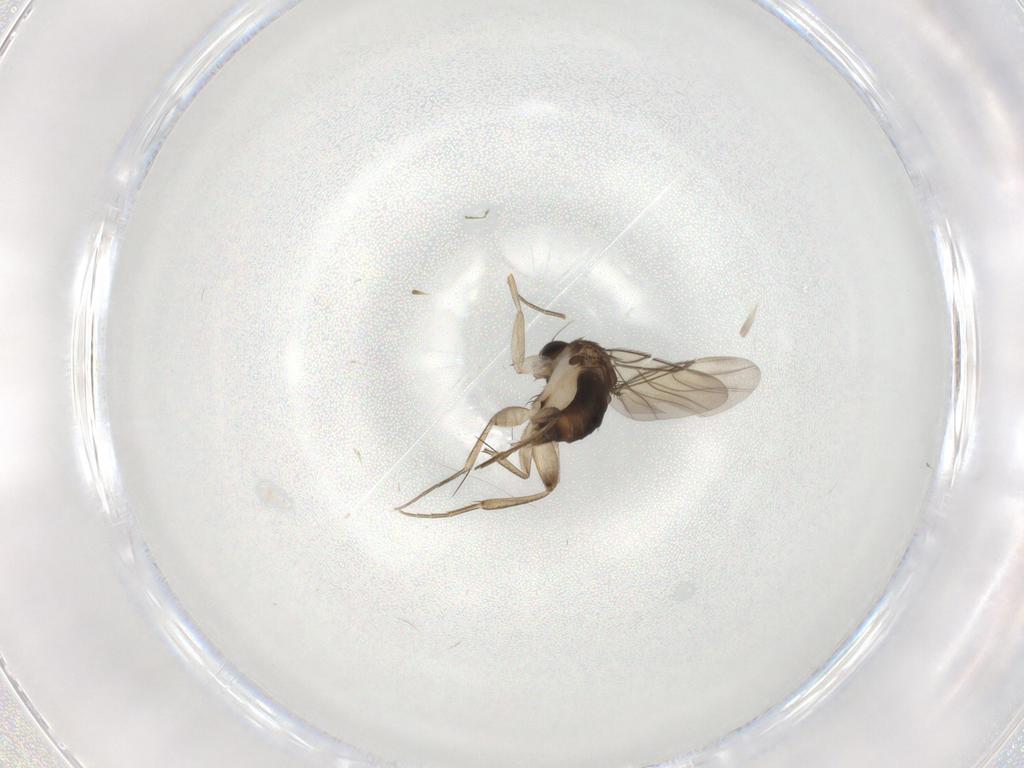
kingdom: Animalia
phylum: Arthropoda
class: Insecta
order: Diptera
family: Phoridae
